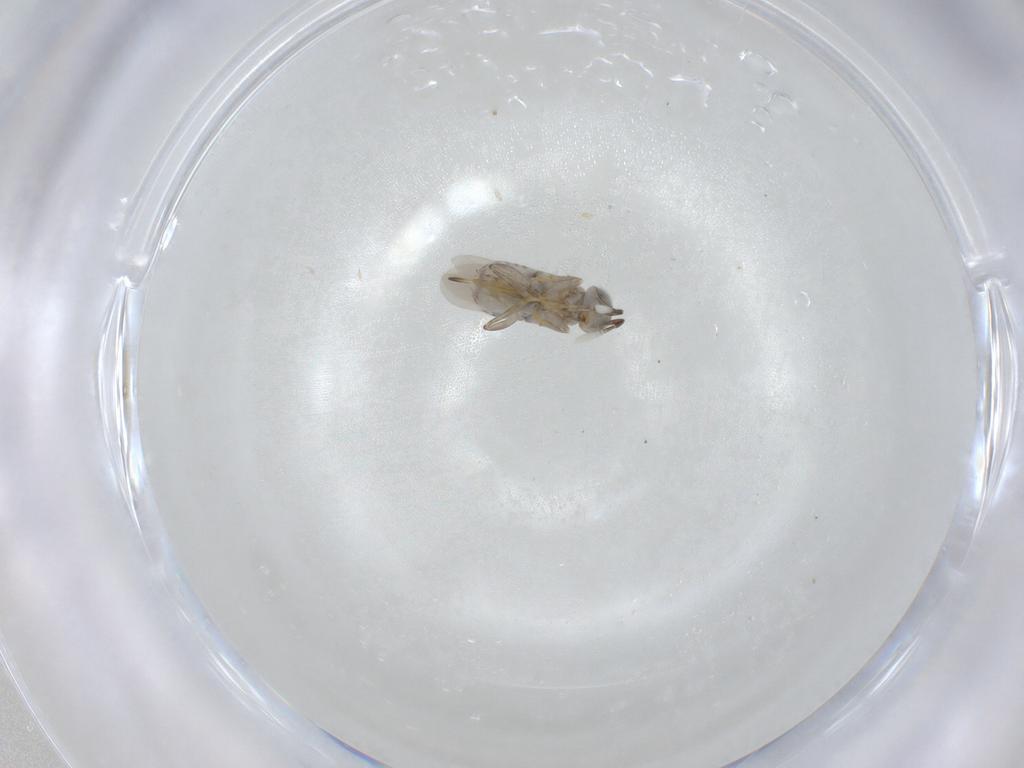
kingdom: Animalia
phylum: Arthropoda
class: Insecta
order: Hymenoptera
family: Encyrtidae
